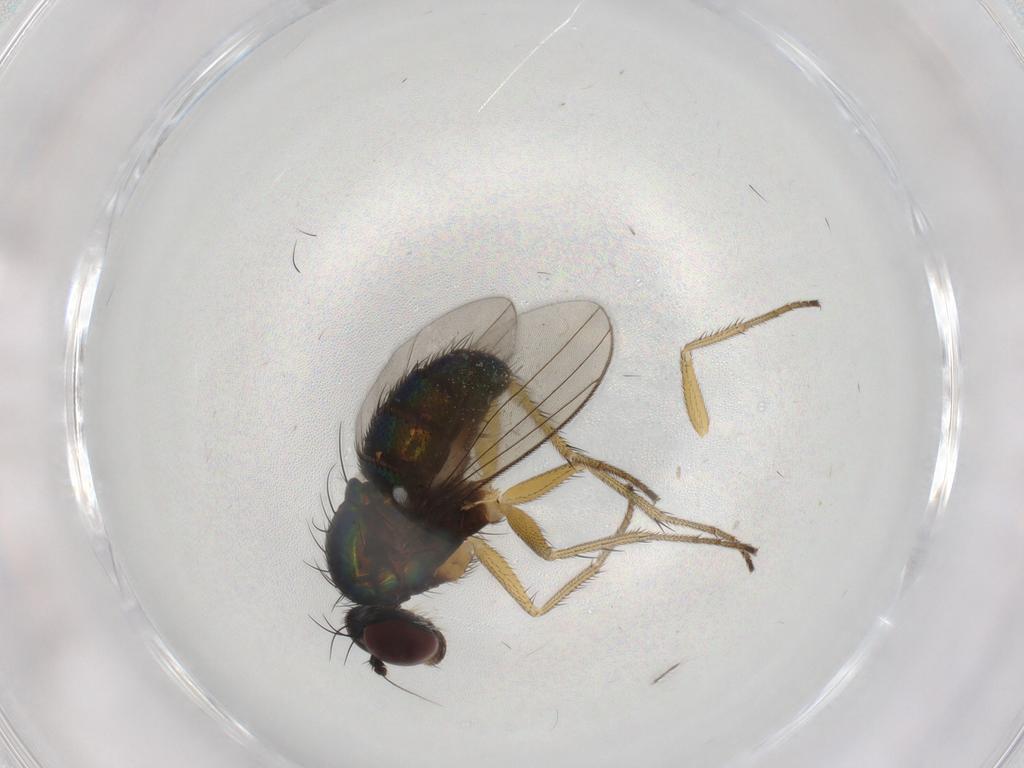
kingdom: Animalia
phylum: Arthropoda
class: Insecta
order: Diptera
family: Dolichopodidae
